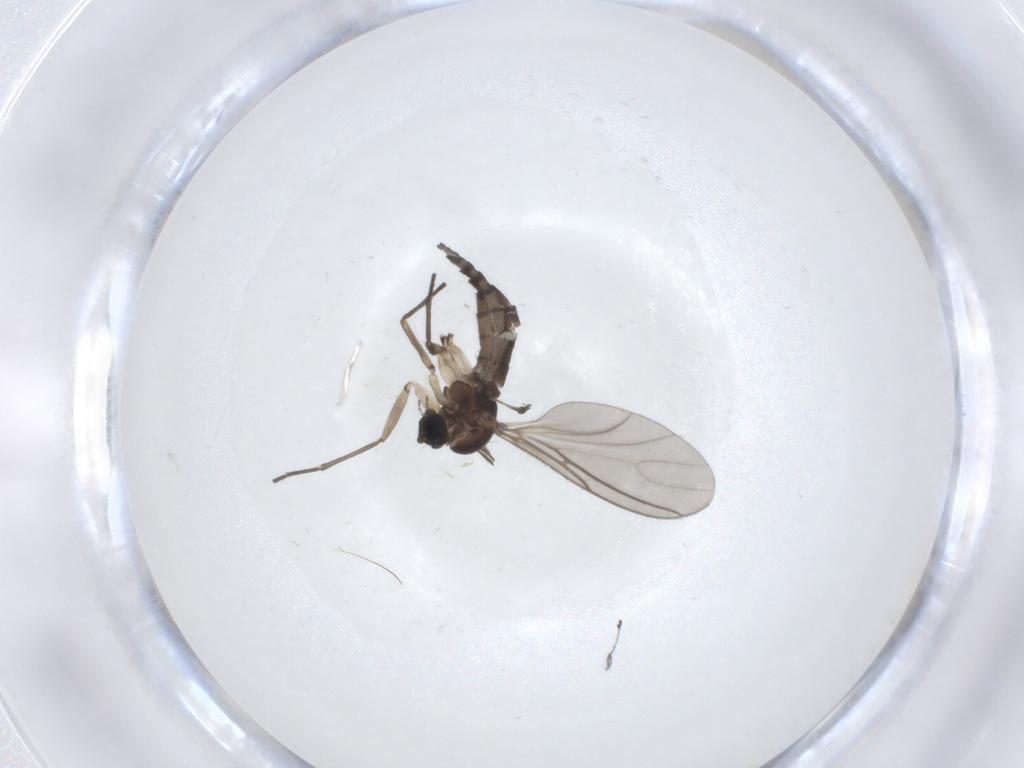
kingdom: Animalia
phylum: Arthropoda
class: Insecta
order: Diptera
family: Sciaridae
